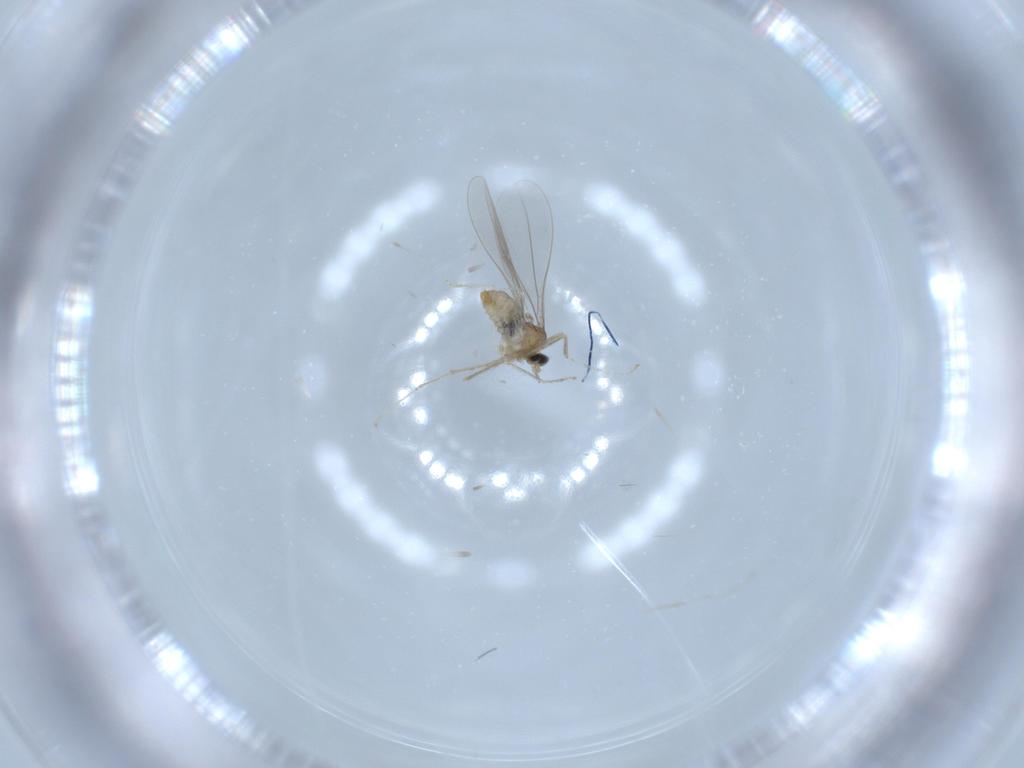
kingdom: Animalia
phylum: Arthropoda
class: Insecta
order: Diptera
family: Cecidomyiidae
